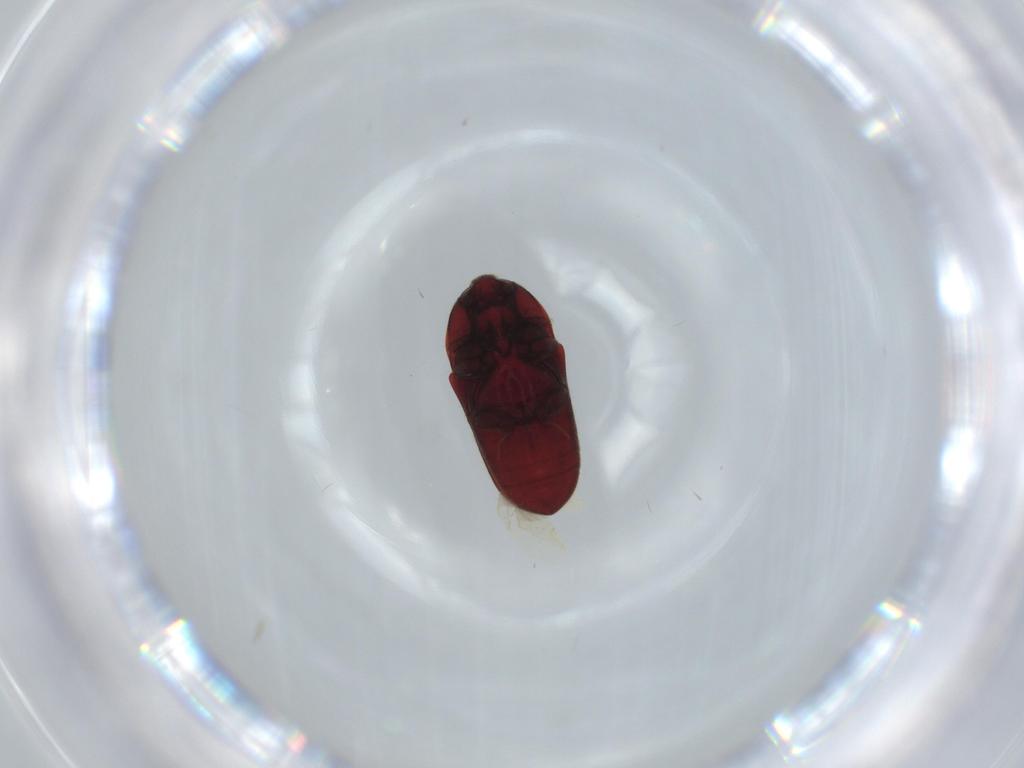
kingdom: Animalia
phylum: Arthropoda
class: Insecta
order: Coleoptera
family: Throscidae
